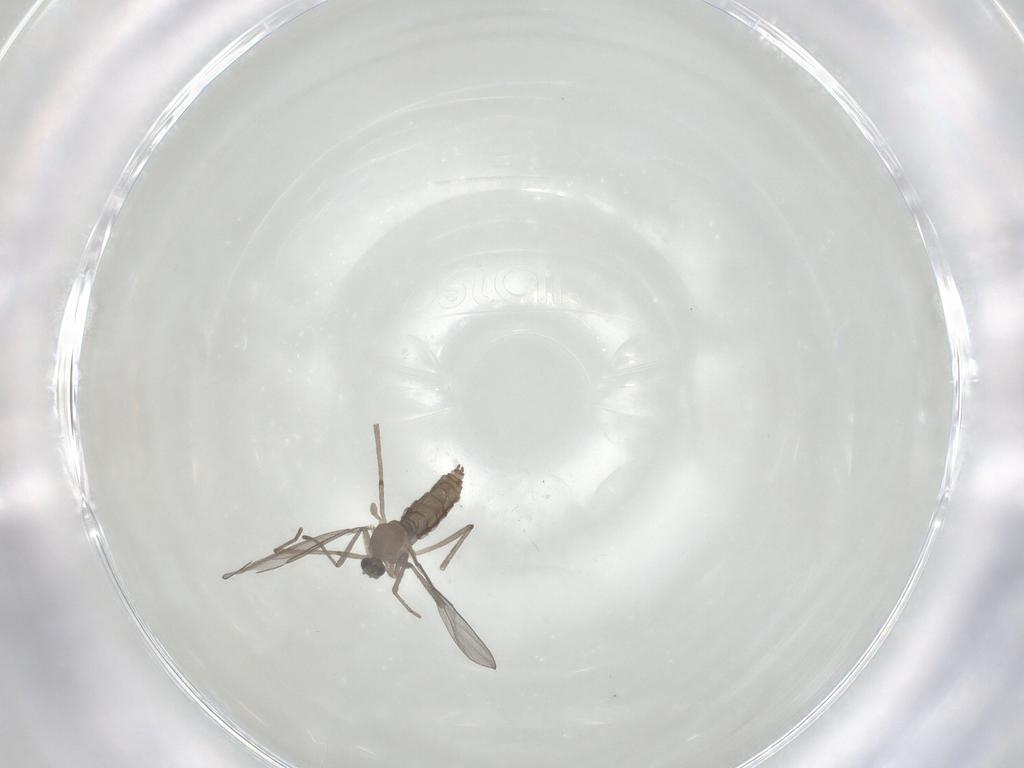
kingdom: Animalia
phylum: Arthropoda
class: Insecta
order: Diptera
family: Cecidomyiidae
